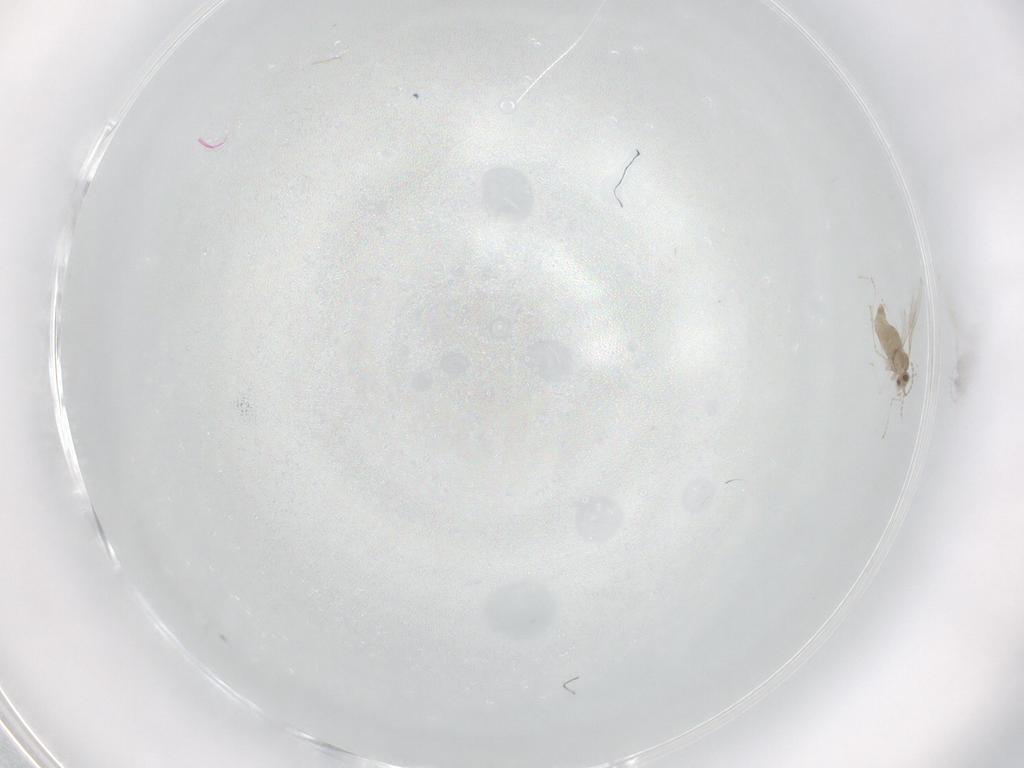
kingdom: Animalia
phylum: Arthropoda
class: Insecta
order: Diptera
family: Cecidomyiidae
